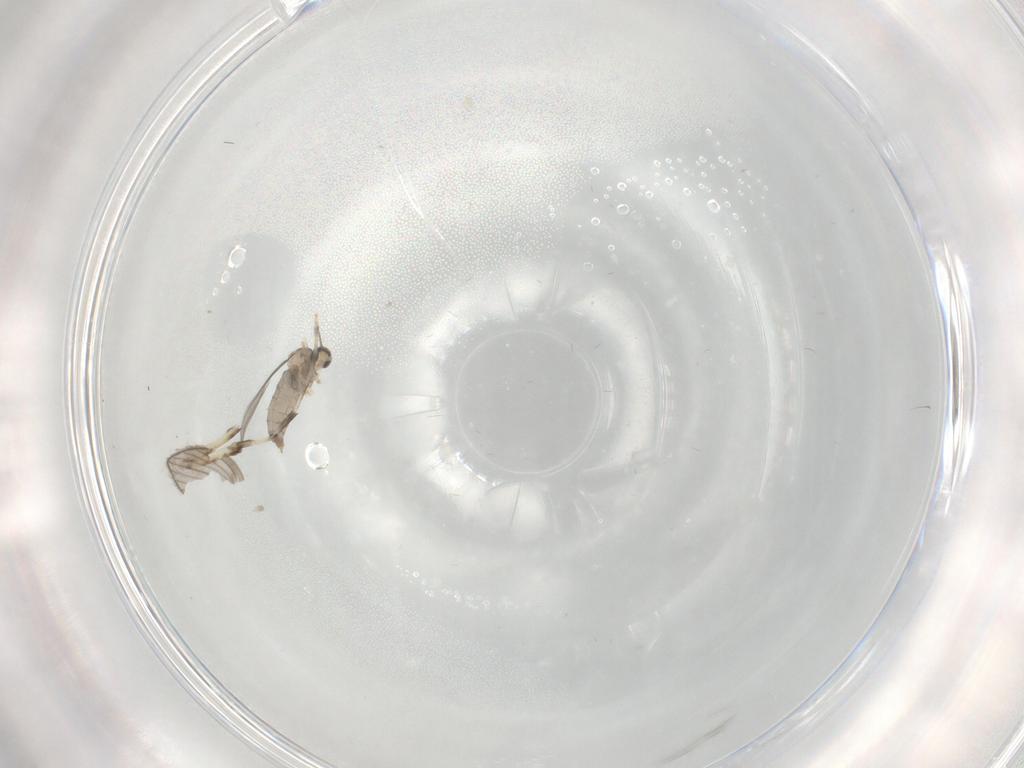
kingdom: Animalia
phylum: Arthropoda
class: Insecta
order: Diptera
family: Psychodidae
